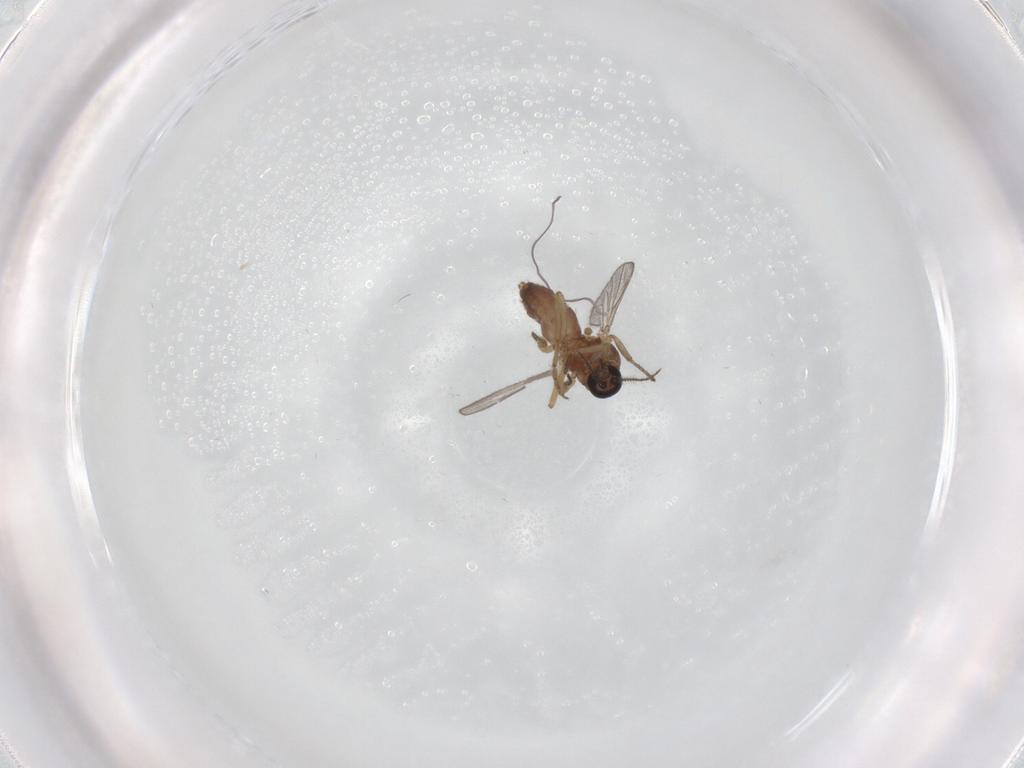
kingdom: Animalia
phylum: Arthropoda
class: Insecta
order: Diptera
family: Ceratopogonidae
